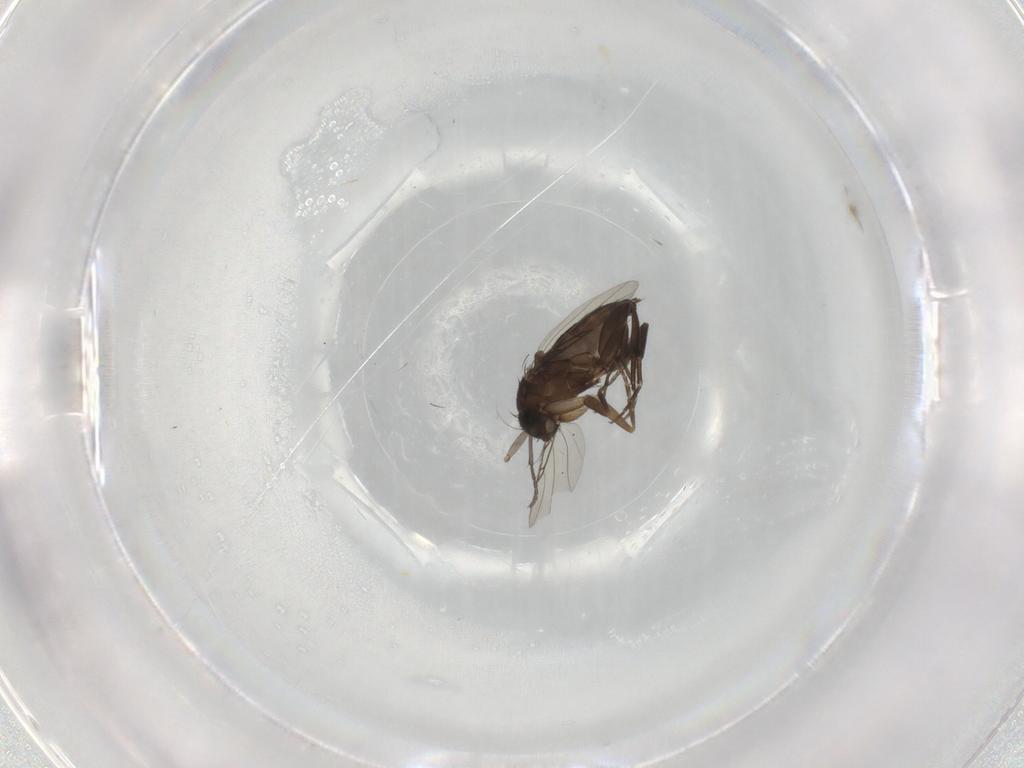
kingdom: Animalia
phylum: Arthropoda
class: Insecta
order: Diptera
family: Phoridae
